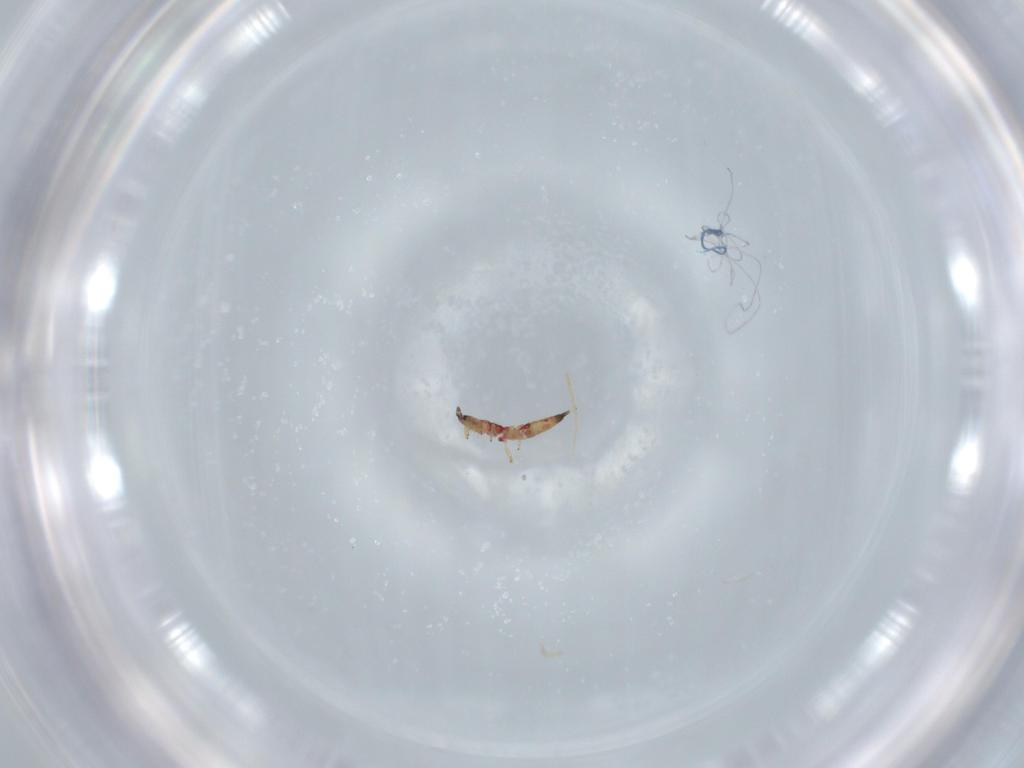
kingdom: Animalia
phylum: Arthropoda
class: Insecta
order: Thysanoptera
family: Phlaeothripidae
